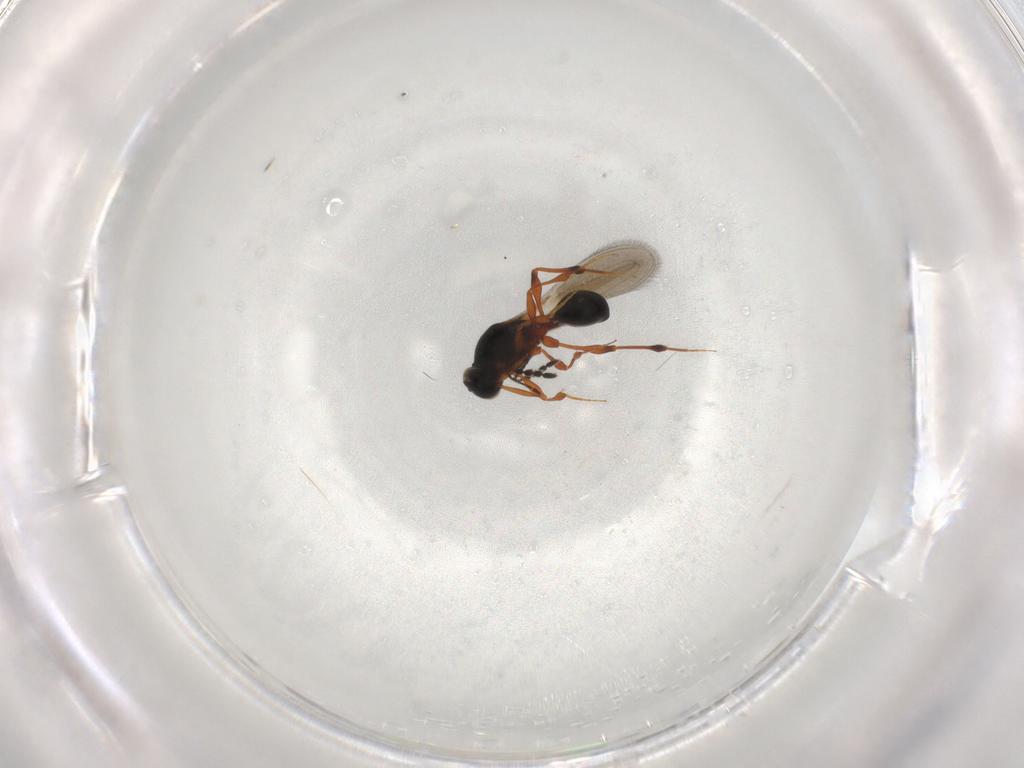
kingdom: Animalia
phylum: Arthropoda
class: Insecta
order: Hymenoptera
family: Platygastridae
